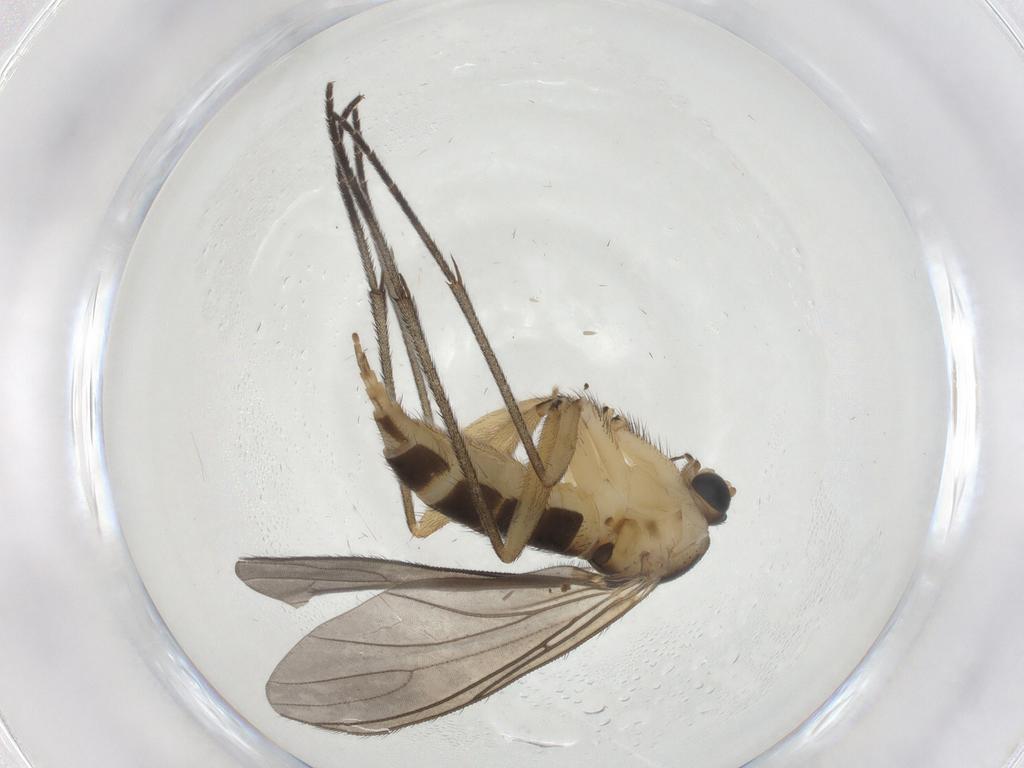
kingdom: Animalia
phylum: Arthropoda
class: Insecta
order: Diptera
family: Sciaridae
